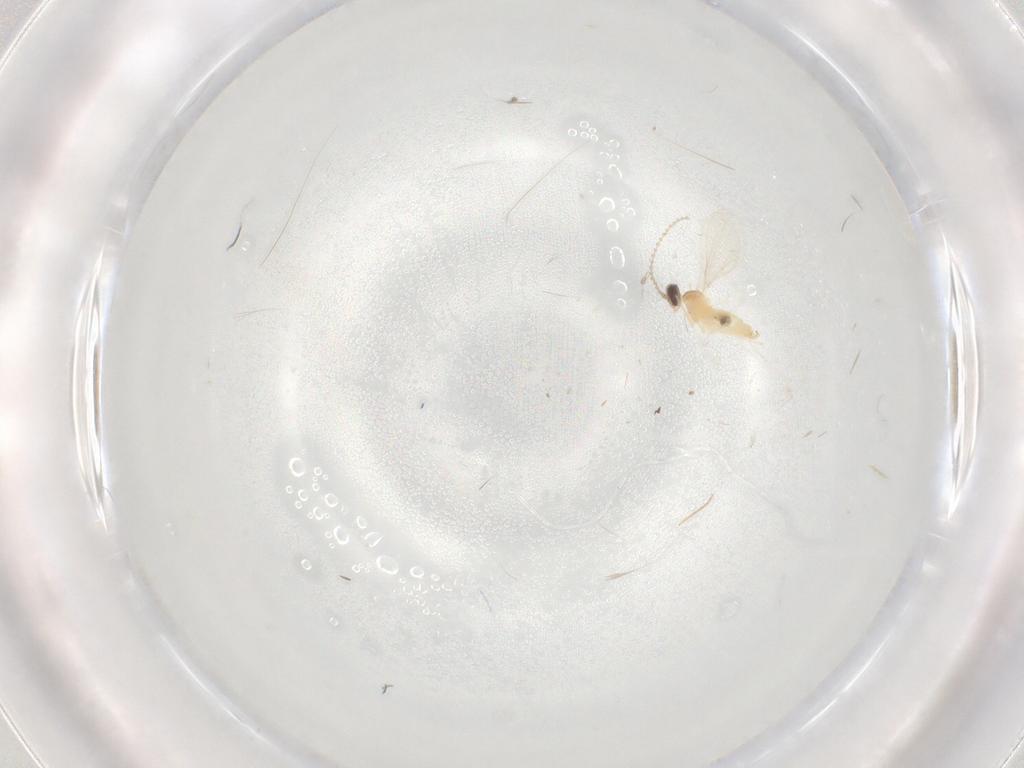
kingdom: Animalia
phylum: Arthropoda
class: Insecta
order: Diptera
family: Cecidomyiidae
